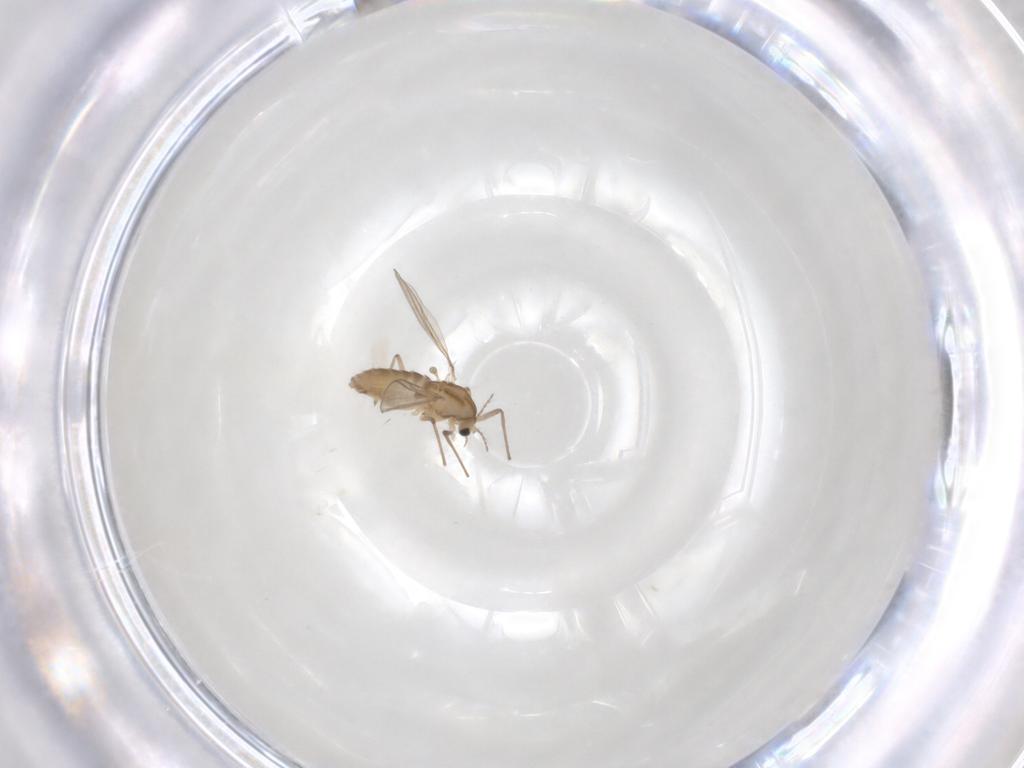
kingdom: Animalia
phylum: Arthropoda
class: Insecta
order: Diptera
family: Chironomidae
